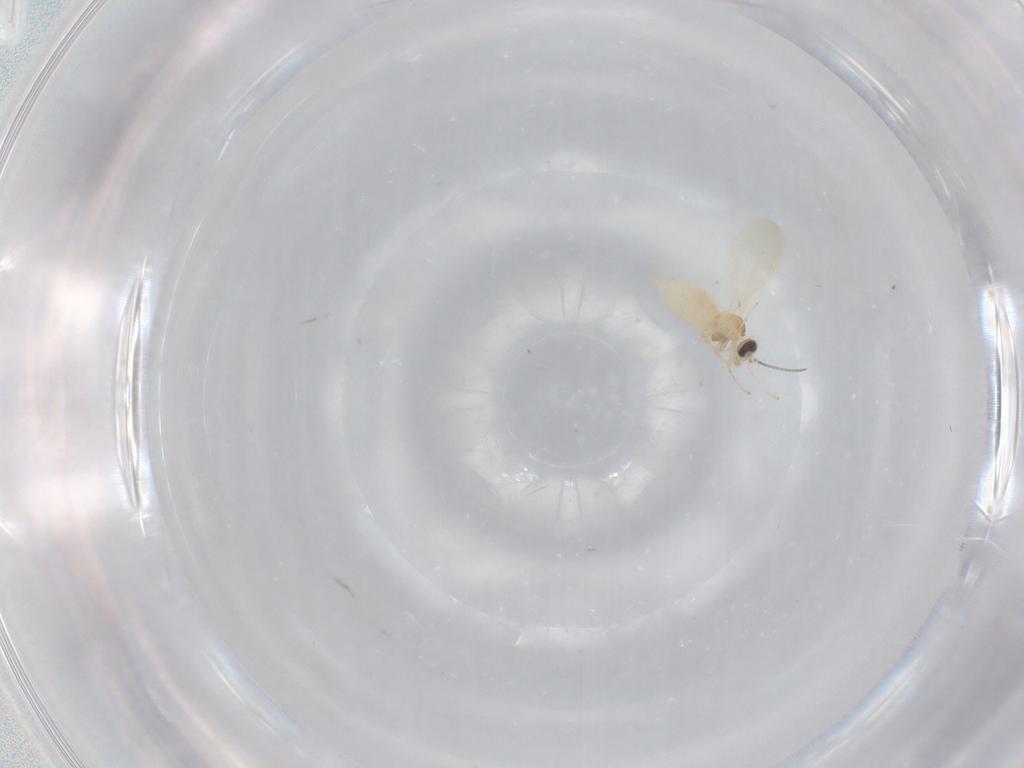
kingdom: Animalia
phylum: Arthropoda
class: Insecta
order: Diptera
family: Cecidomyiidae
